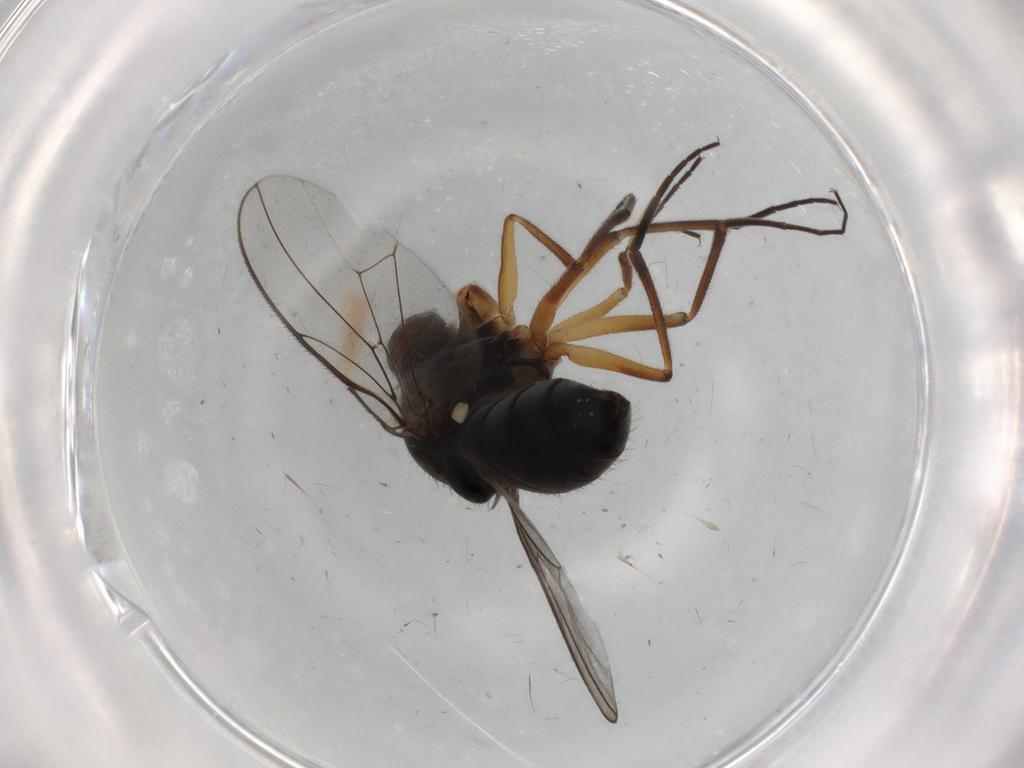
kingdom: Animalia
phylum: Arthropoda
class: Insecta
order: Diptera
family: Ephydridae
